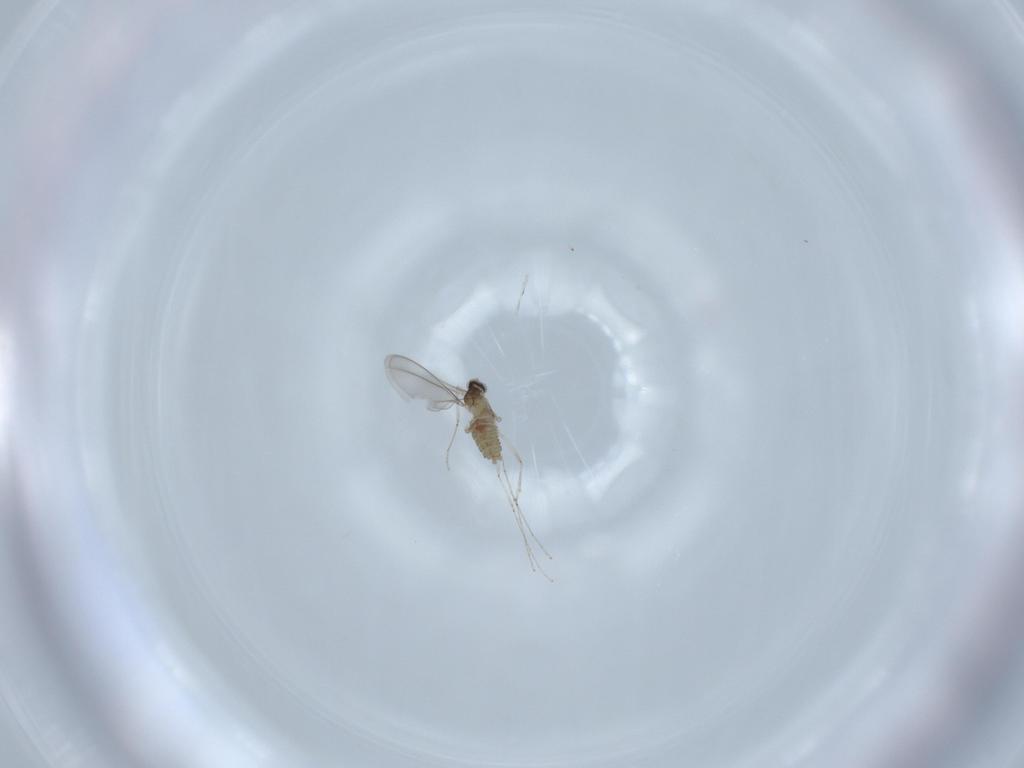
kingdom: Animalia
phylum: Arthropoda
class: Insecta
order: Diptera
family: Cecidomyiidae
